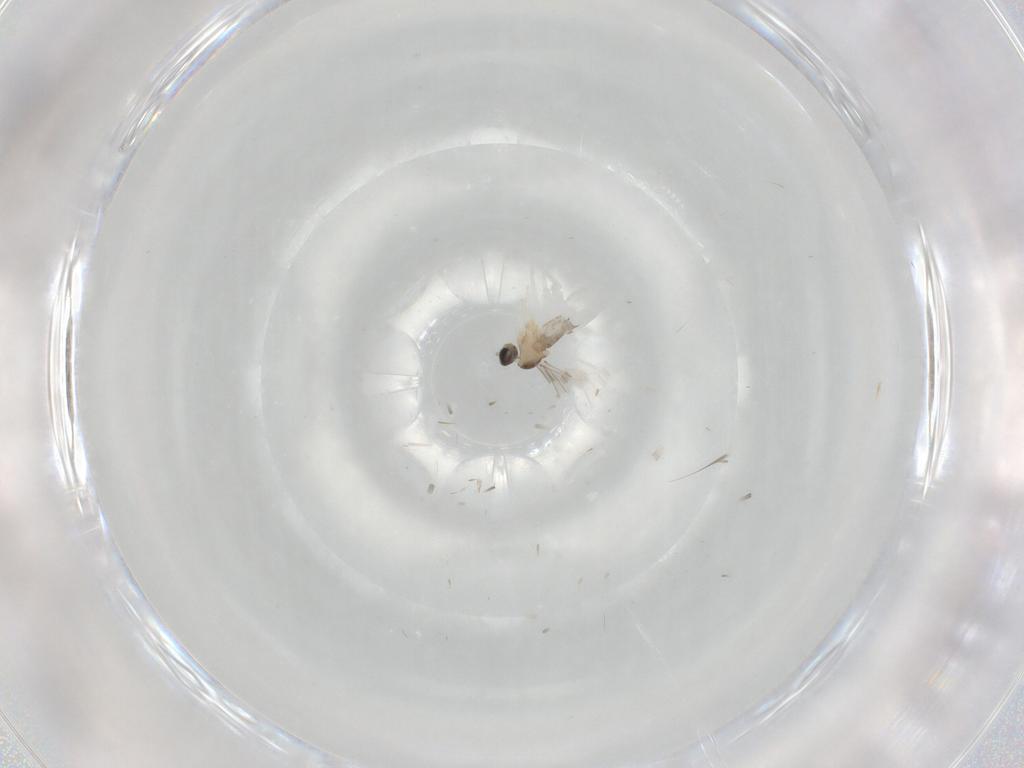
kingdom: Animalia
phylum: Arthropoda
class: Insecta
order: Diptera
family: Cecidomyiidae
